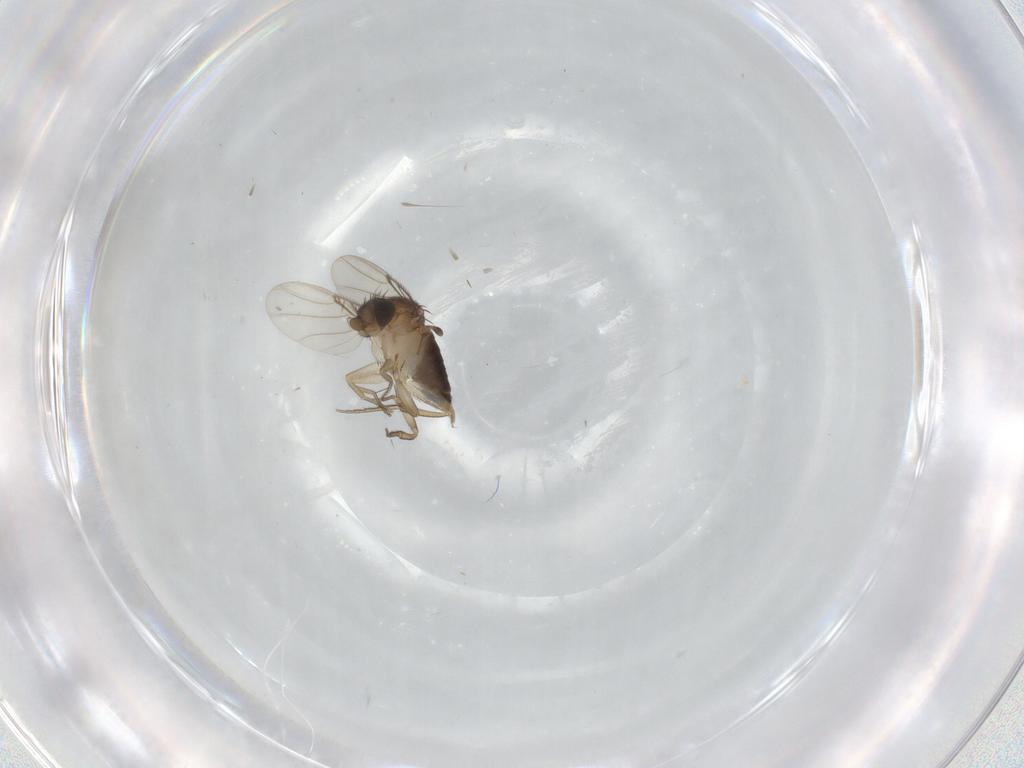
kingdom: Animalia
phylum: Arthropoda
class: Insecta
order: Diptera
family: Phoridae
